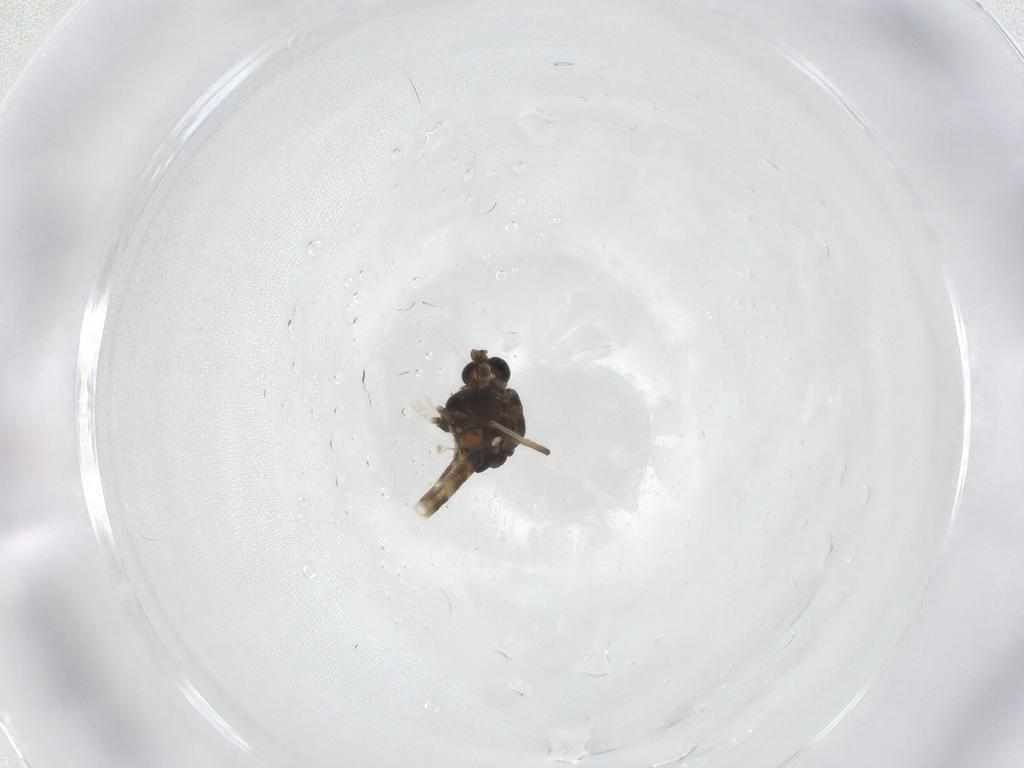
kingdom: Animalia
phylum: Arthropoda
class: Insecta
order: Diptera
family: Chironomidae
